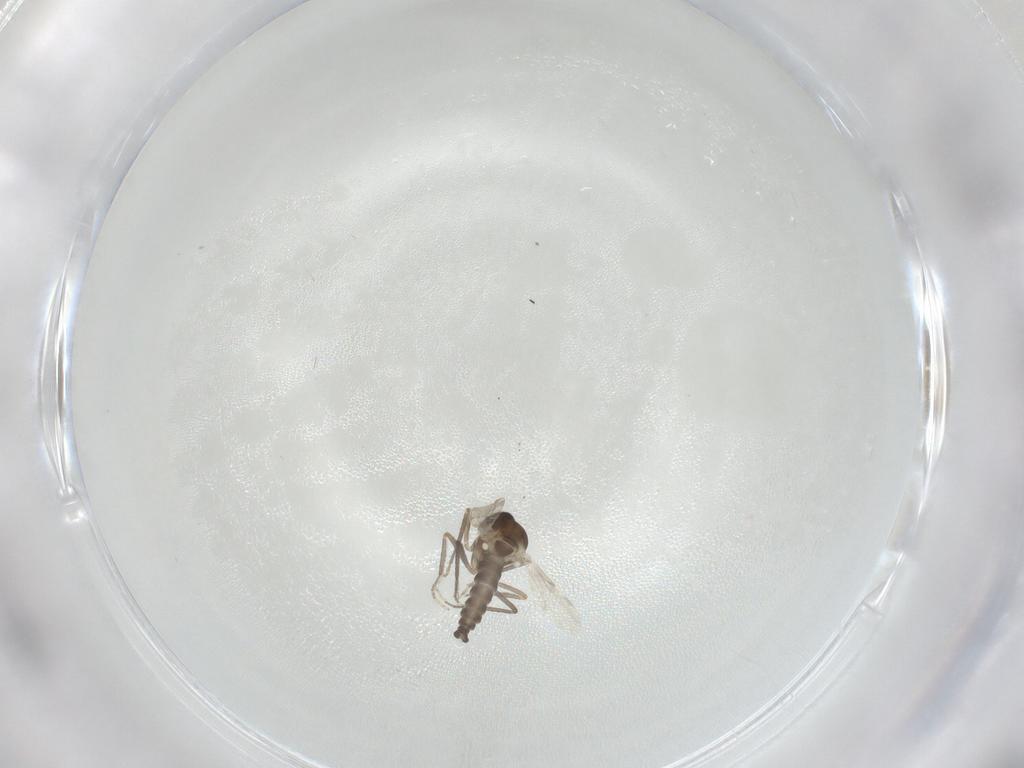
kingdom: Animalia
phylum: Arthropoda
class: Insecta
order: Diptera
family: Ceratopogonidae
